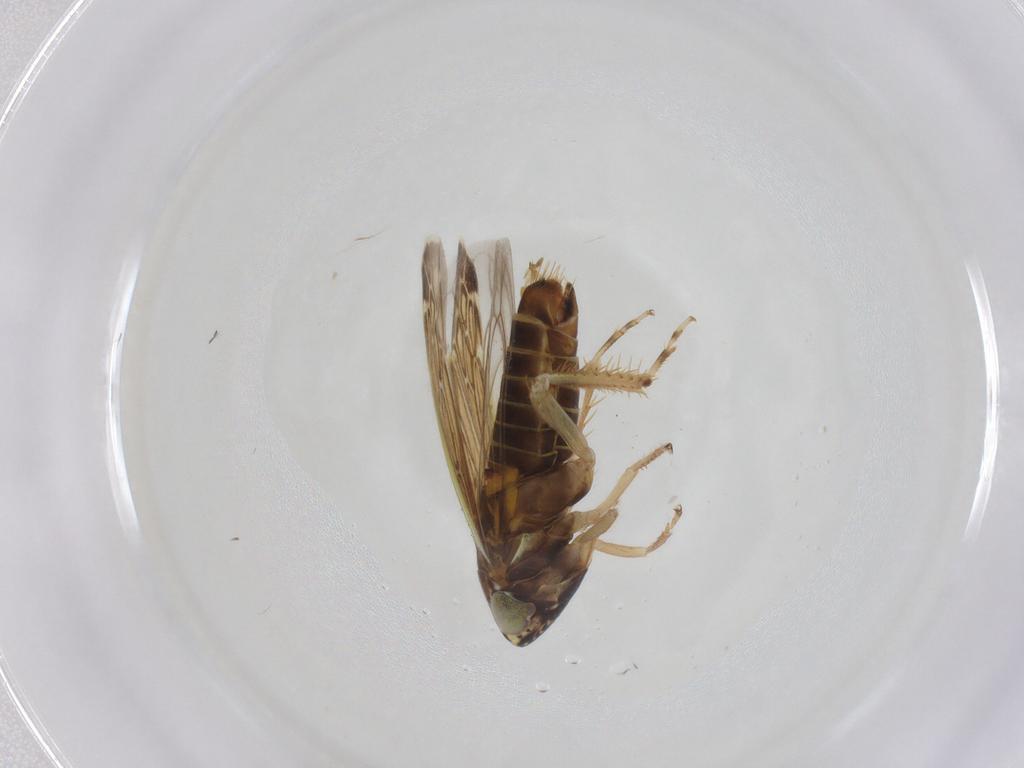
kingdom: Animalia
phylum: Arthropoda
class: Insecta
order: Hemiptera
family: Cicadellidae
